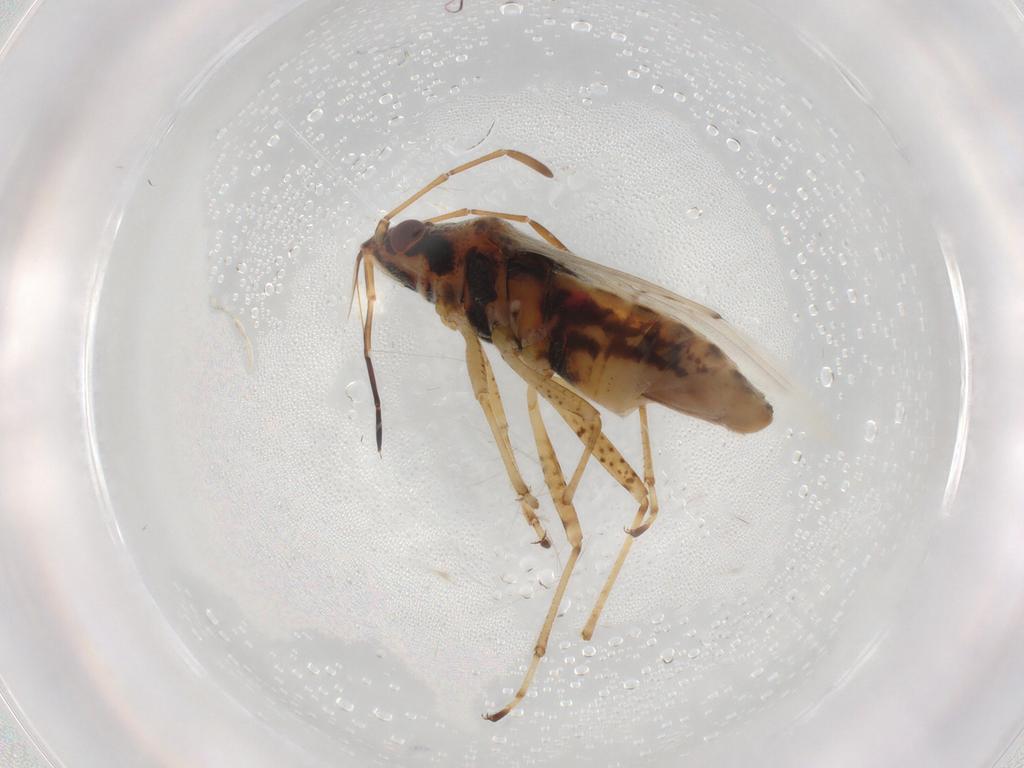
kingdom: Animalia
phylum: Arthropoda
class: Insecta
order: Hemiptera
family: Lygaeidae
